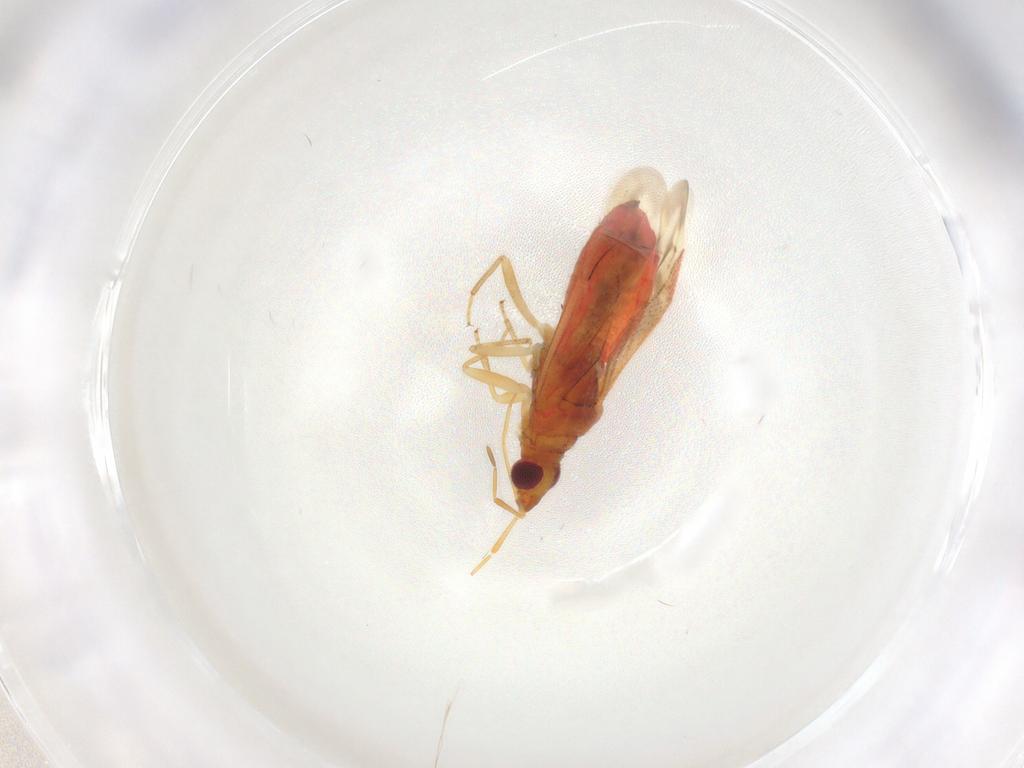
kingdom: Animalia
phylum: Arthropoda
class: Insecta
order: Hemiptera
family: Miridae
